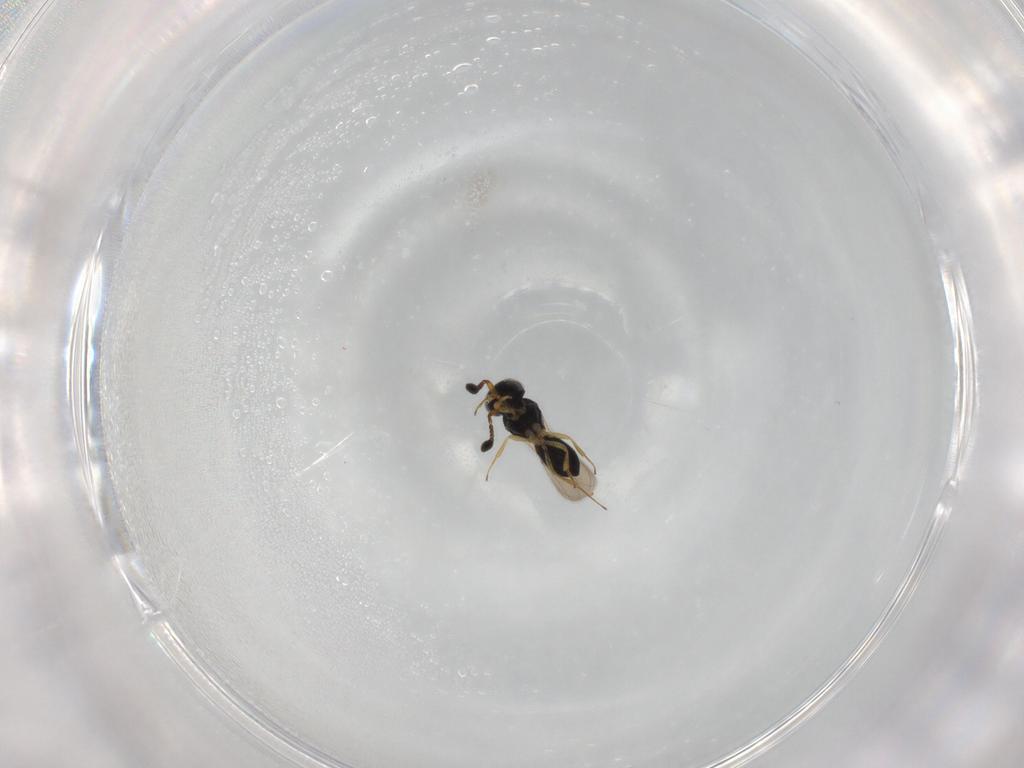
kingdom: Animalia
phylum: Arthropoda
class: Insecta
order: Hymenoptera
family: Scelionidae
